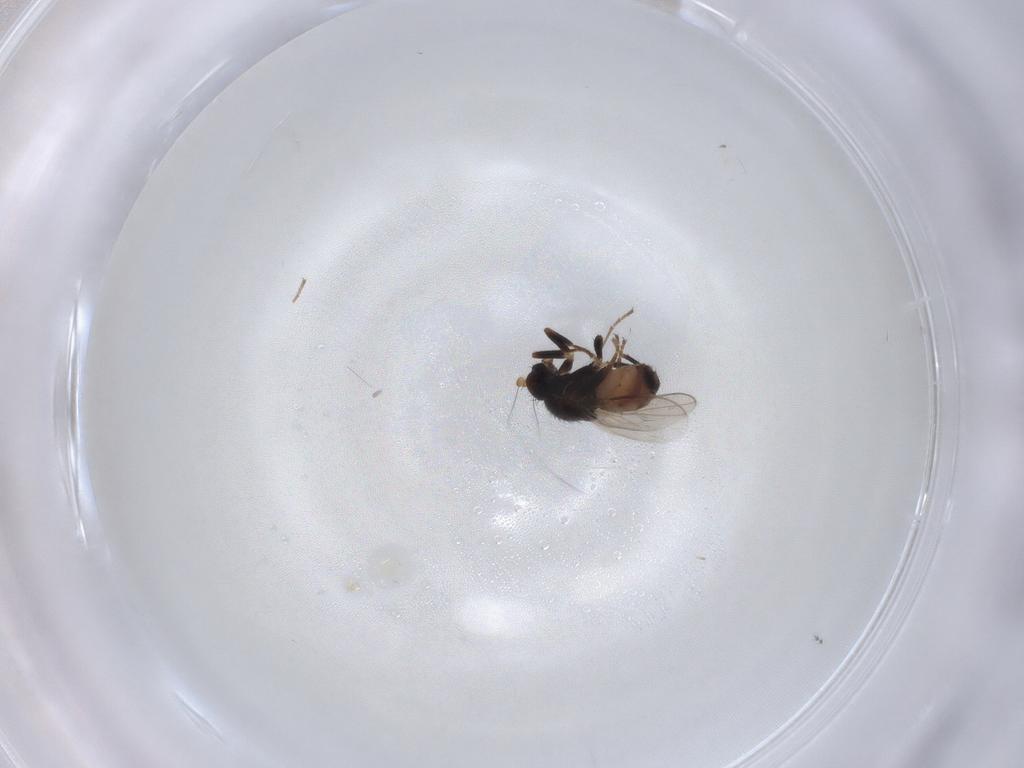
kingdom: Animalia
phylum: Arthropoda
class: Insecta
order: Diptera
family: Sphaeroceridae
